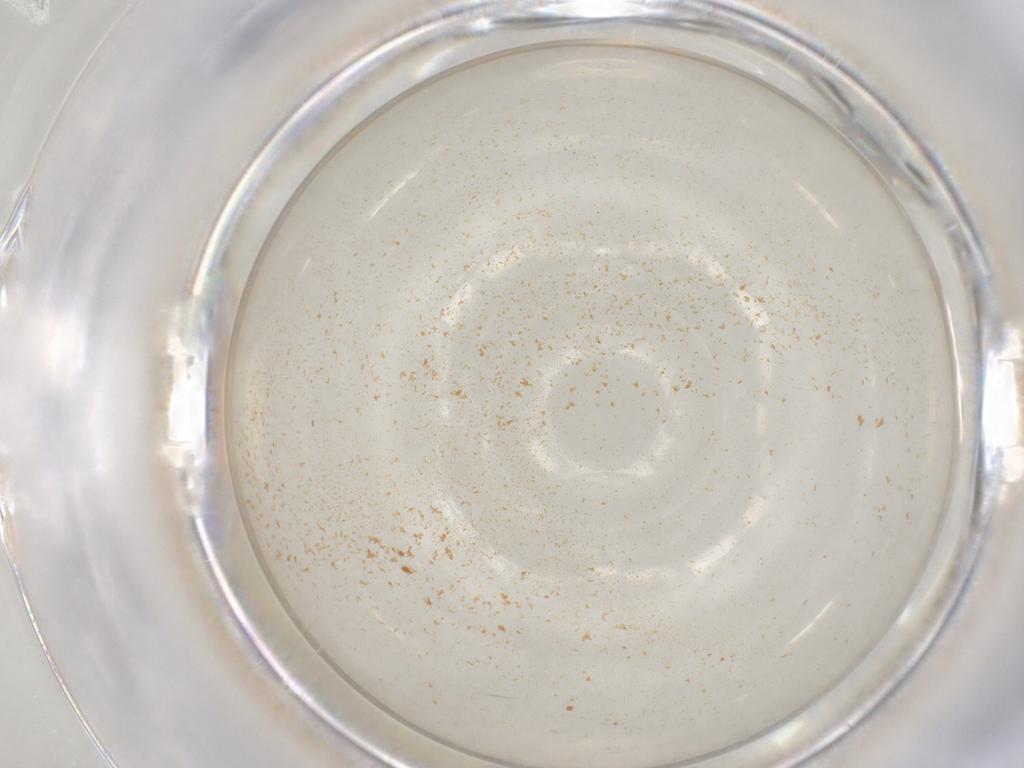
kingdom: Animalia
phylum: Arthropoda
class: Insecta
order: Diptera
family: Ceratopogonidae
